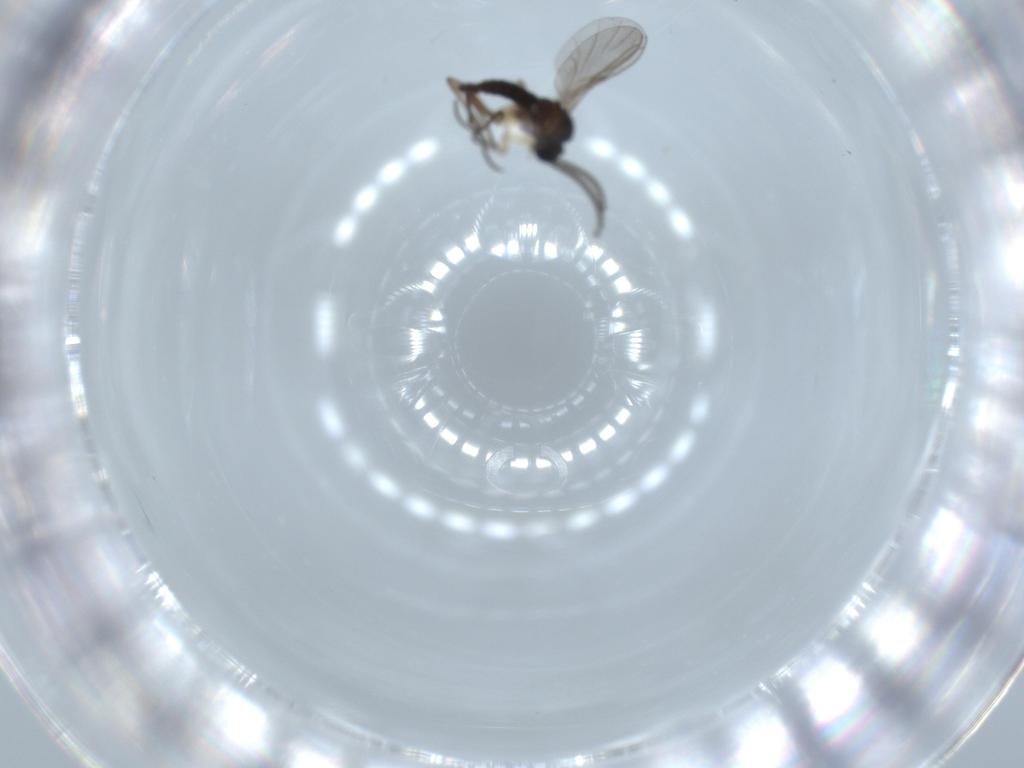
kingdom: Animalia
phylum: Arthropoda
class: Insecta
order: Diptera
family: Sciaridae
